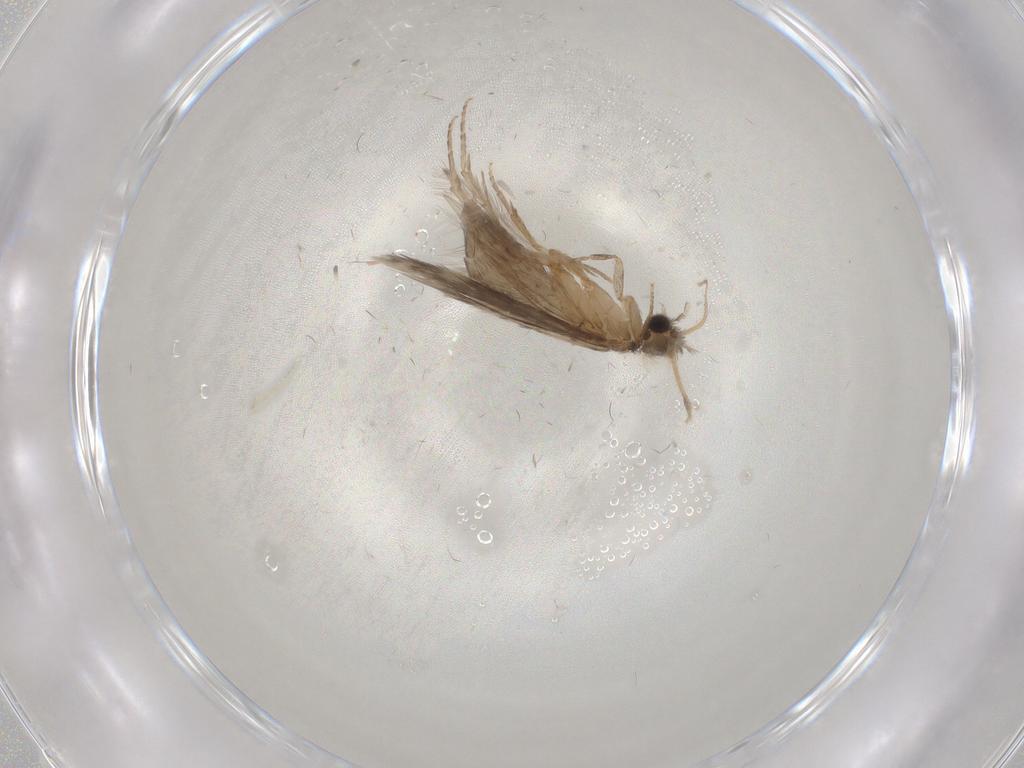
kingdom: Animalia
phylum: Arthropoda
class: Insecta
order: Trichoptera
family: Hydroptilidae
